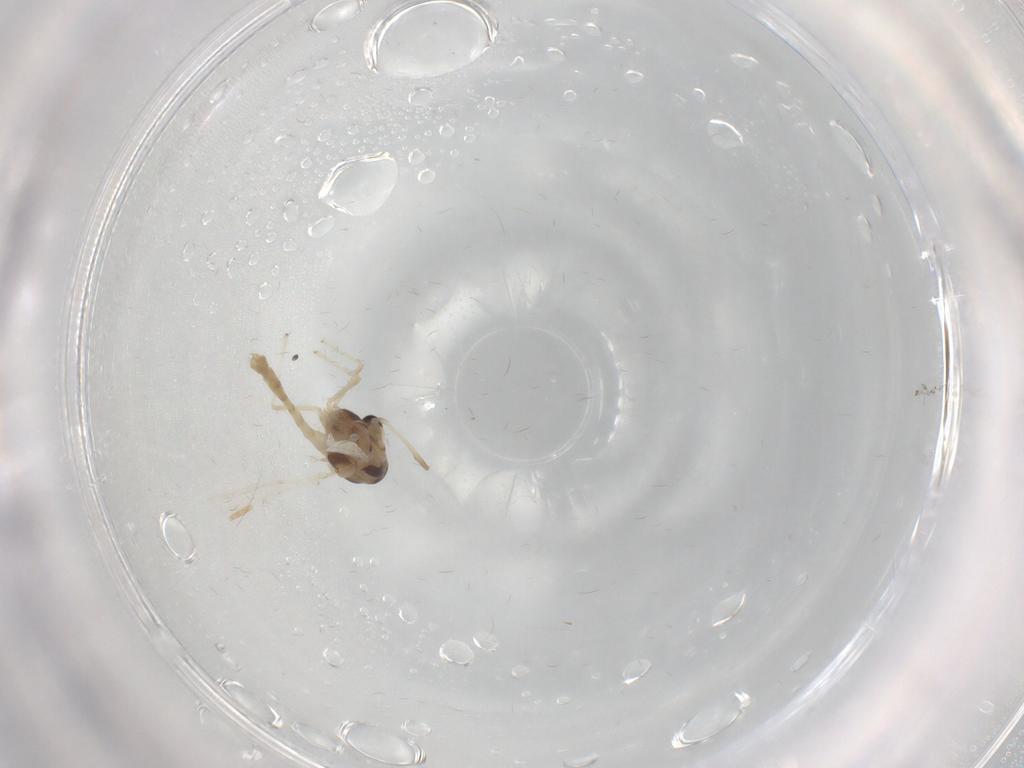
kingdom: Animalia
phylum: Arthropoda
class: Insecta
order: Diptera
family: Chironomidae
